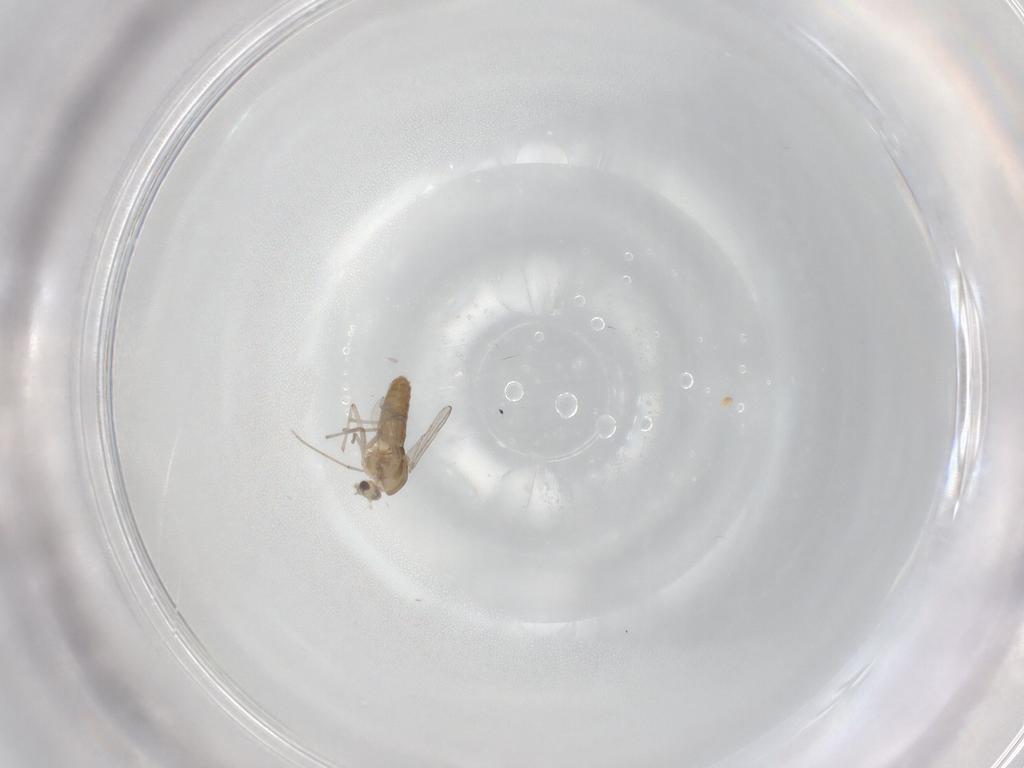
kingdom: Animalia
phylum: Arthropoda
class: Insecta
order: Diptera
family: Chironomidae
